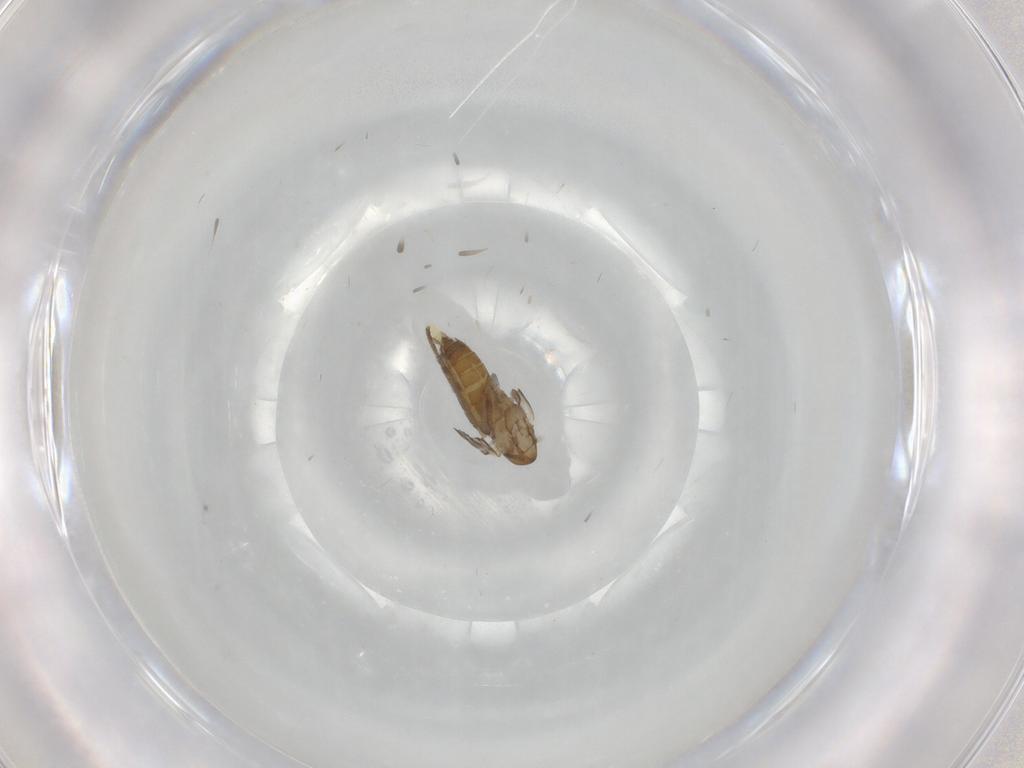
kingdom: Animalia
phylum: Arthropoda
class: Insecta
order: Diptera
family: Ceratopogonidae
